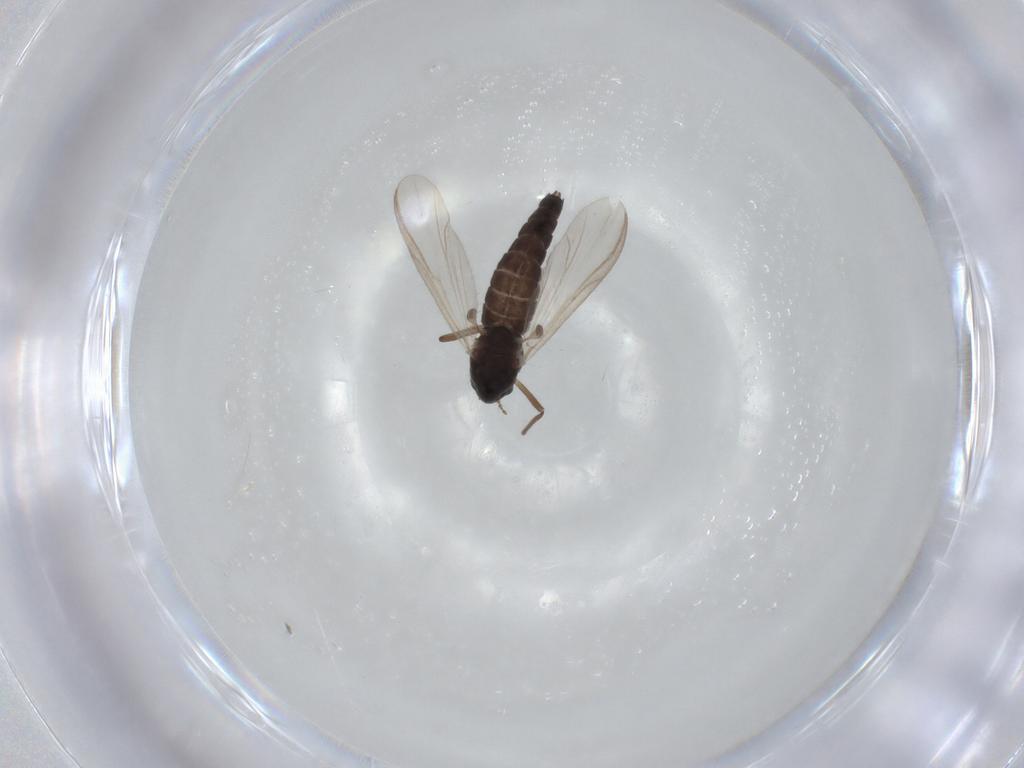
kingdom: Animalia
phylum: Arthropoda
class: Insecta
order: Diptera
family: Chironomidae
